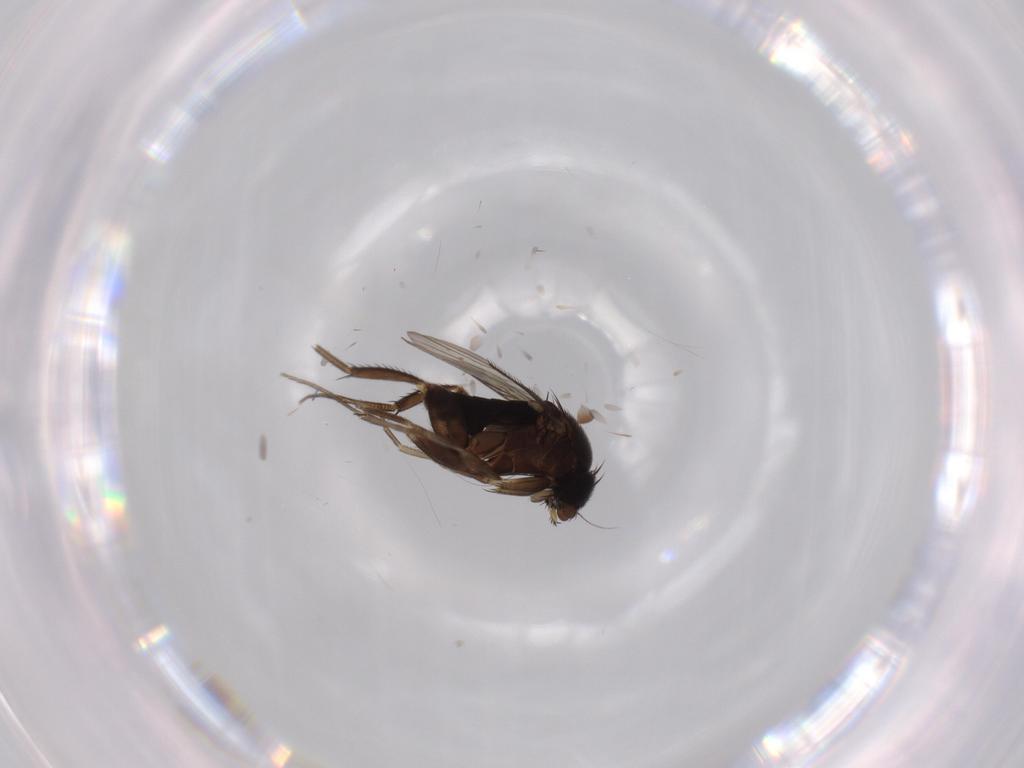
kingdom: Animalia
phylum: Arthropoda
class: Insecta
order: Diptera
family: Phoridae
